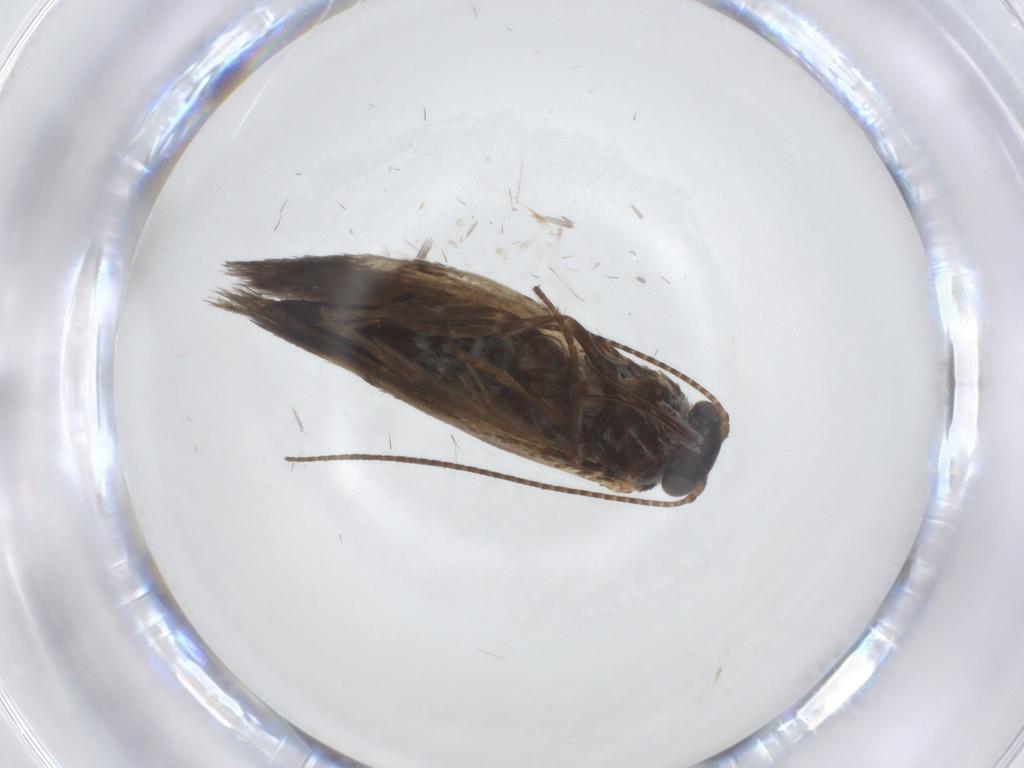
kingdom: Animalia
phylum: Arthropoda
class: Insecta
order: Lepidoptera
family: Adelidae
